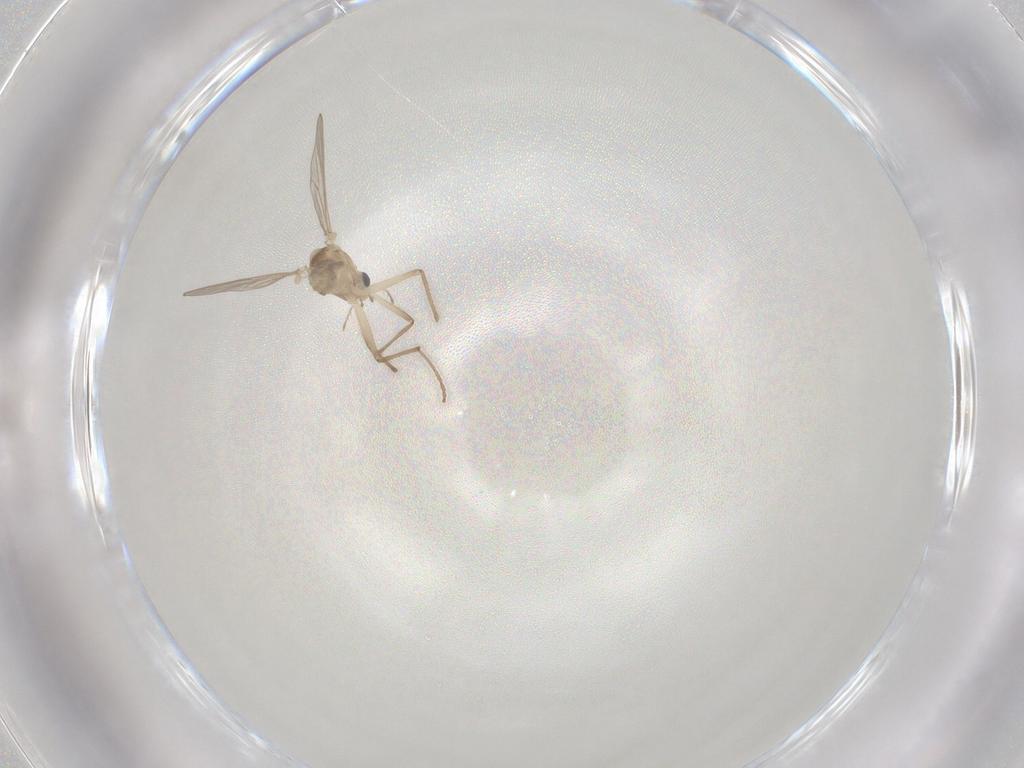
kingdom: Animalia
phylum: Arthropoda
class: Insecta
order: Diptera
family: Chironomidae
